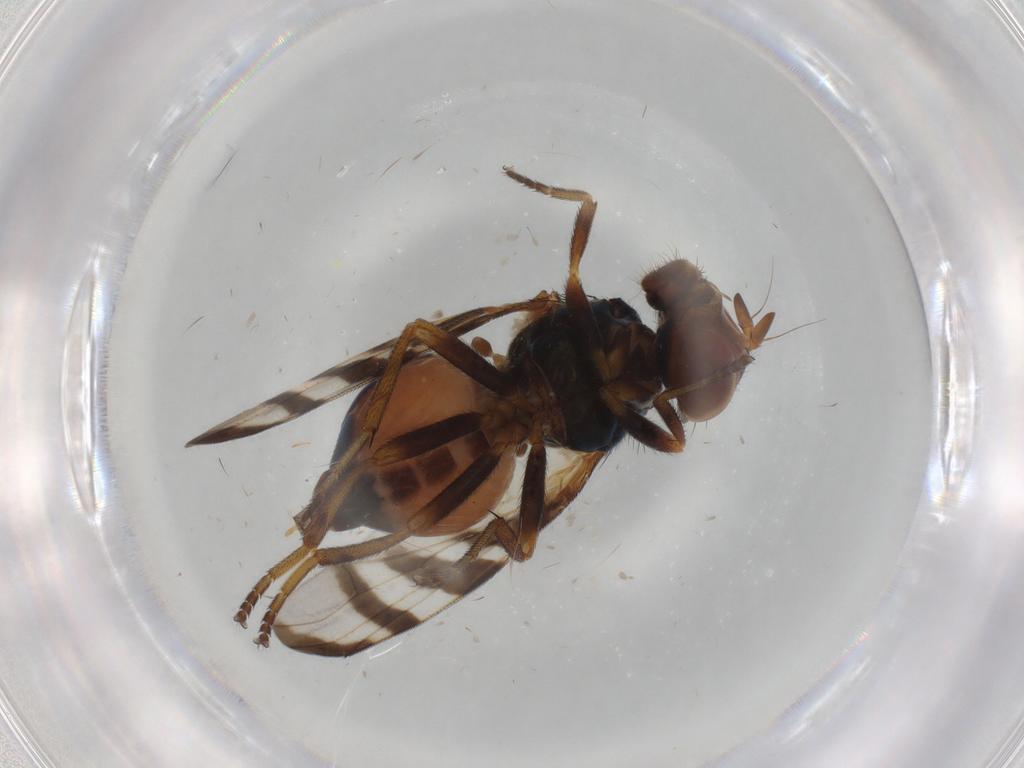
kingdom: Animalia
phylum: Arthropoda
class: Insecta
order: Diptera
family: Platystomatidae
